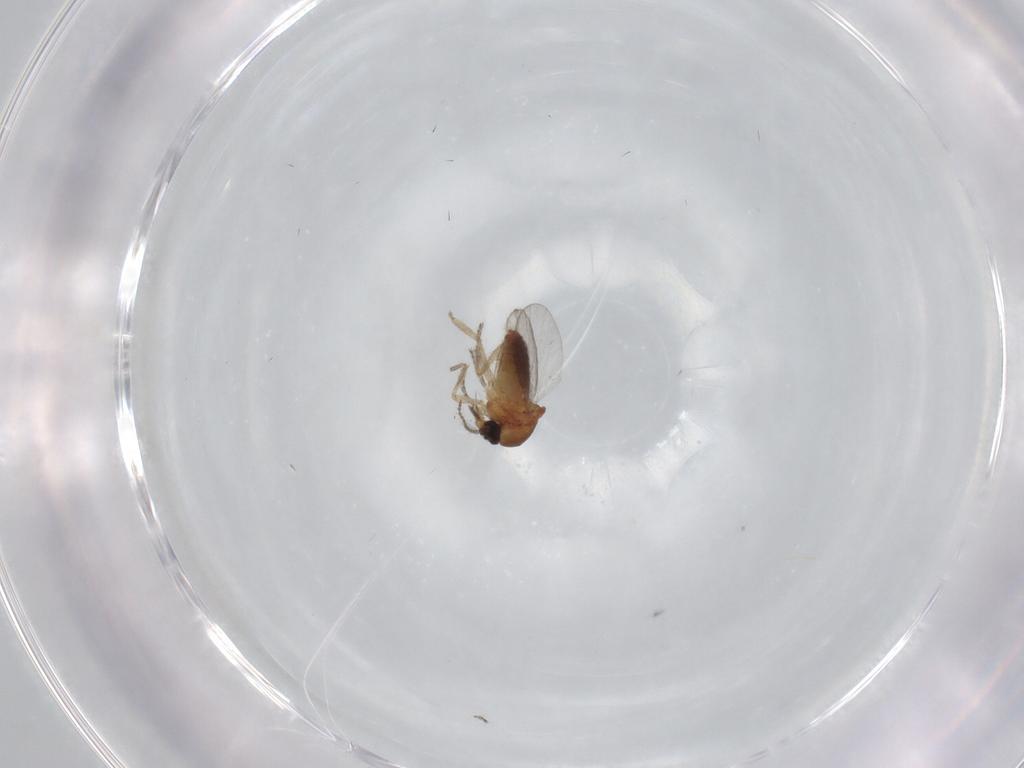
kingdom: Animalia
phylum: Arthropoda
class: Insecta
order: Diptera
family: Ceratopogonidae
